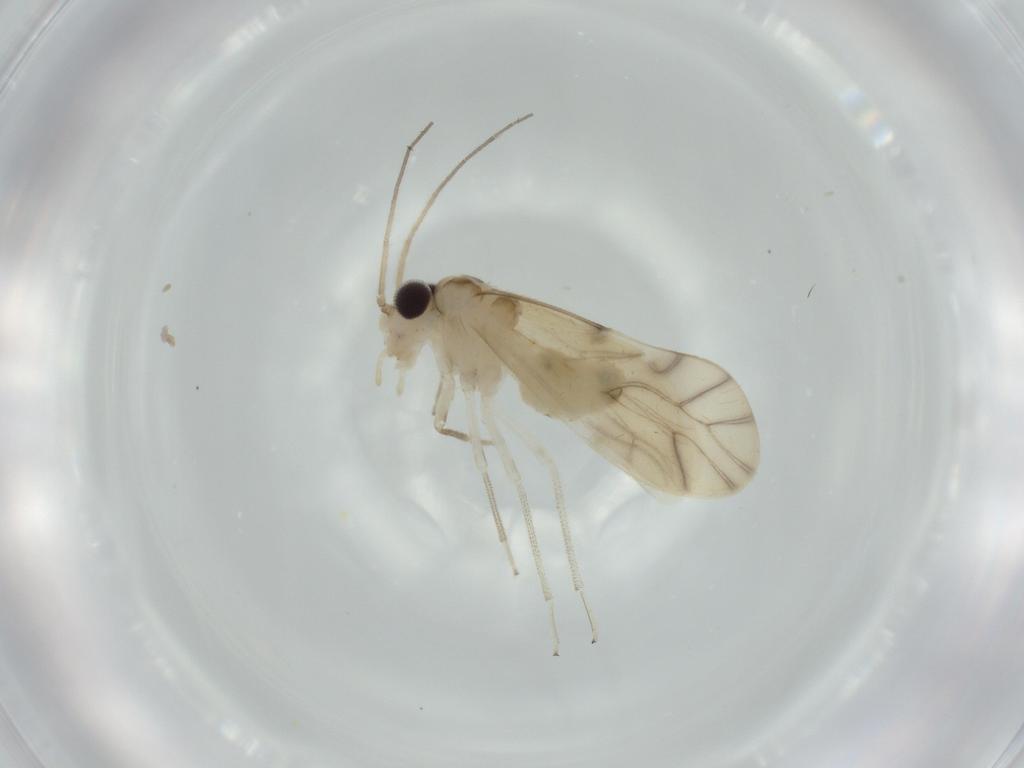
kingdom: Animalia
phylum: Arthropoda
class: Insecta
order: Psocodea
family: Caeciliusidae
